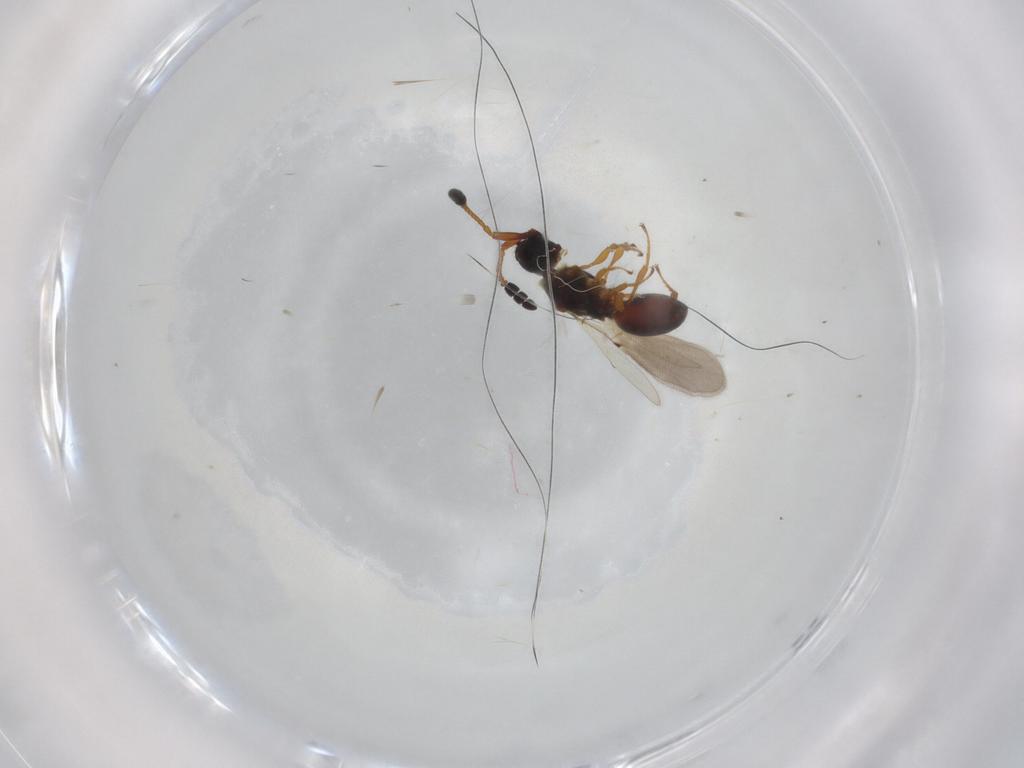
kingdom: Animalia
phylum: Arthropoda
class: Insecta
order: Hymenoptera
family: Diapriidae
